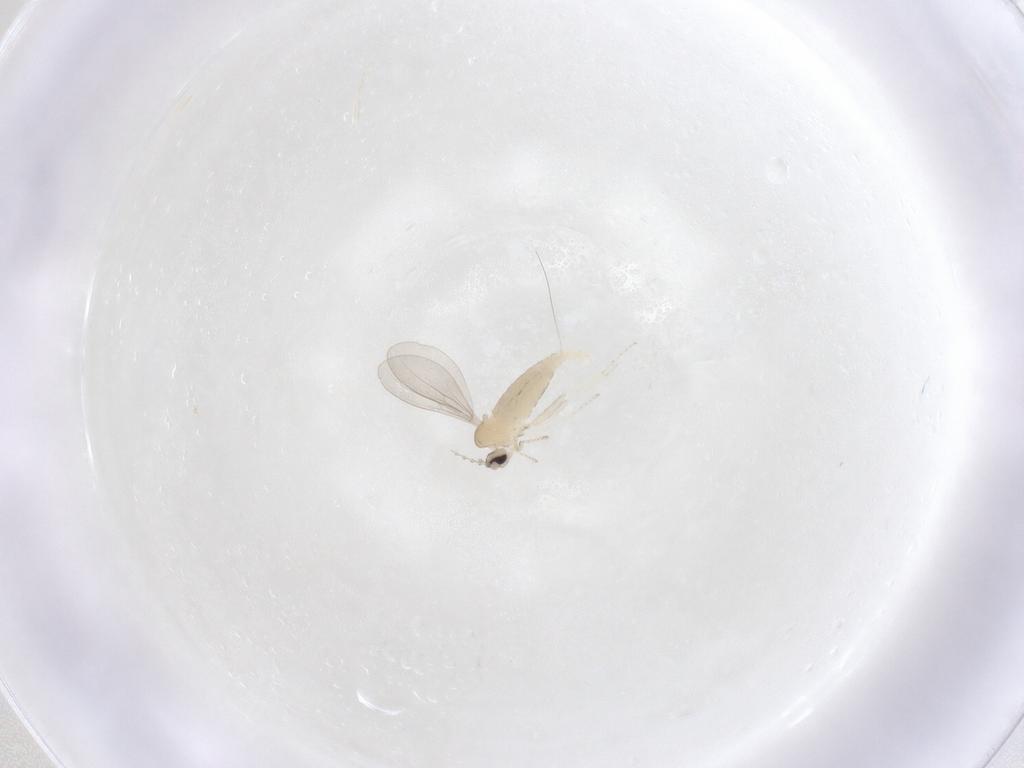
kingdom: Animalia
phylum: Arthropoda
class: Insecta
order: Diptera
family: Cecidomyiidae
